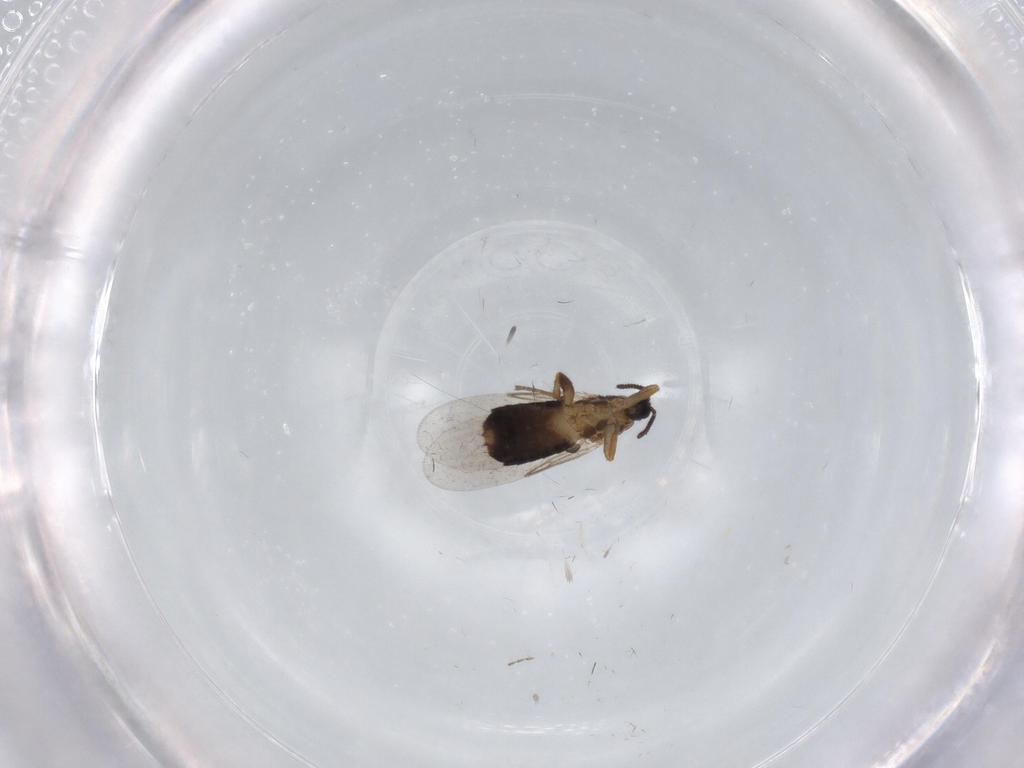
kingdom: Animalia
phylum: Arthropoda
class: Insecta
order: Diptera
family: Scatopsidae
